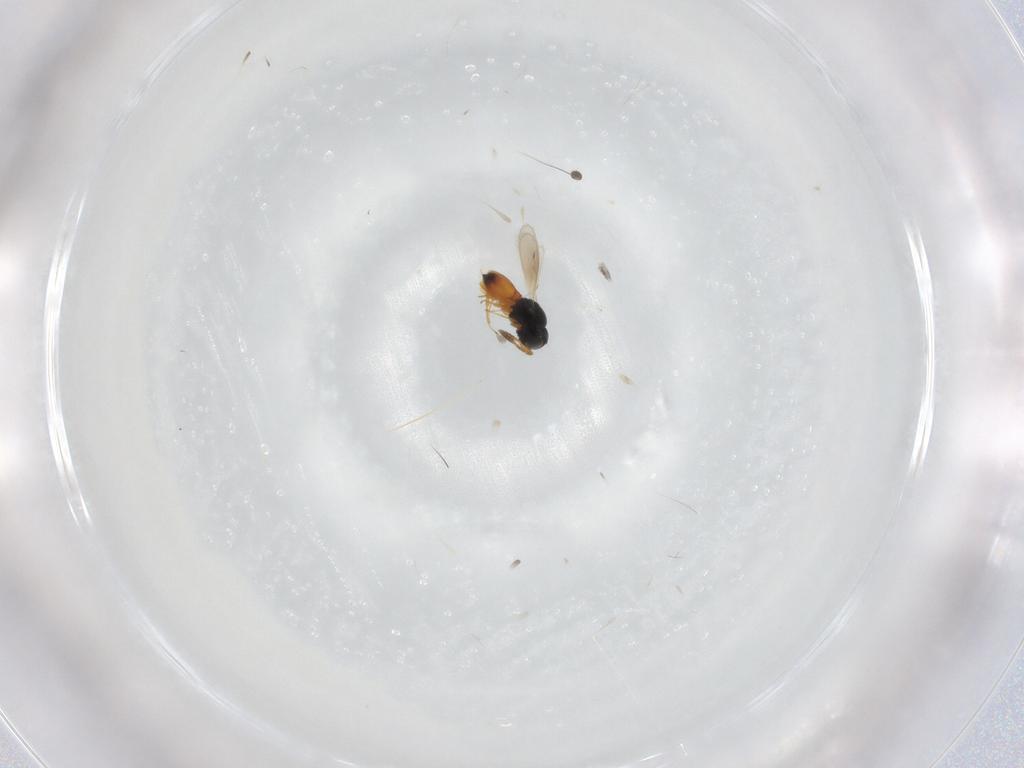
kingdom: Animalia
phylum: Arthropoda
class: Insecta
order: Hymenoptera
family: Scelionidae
